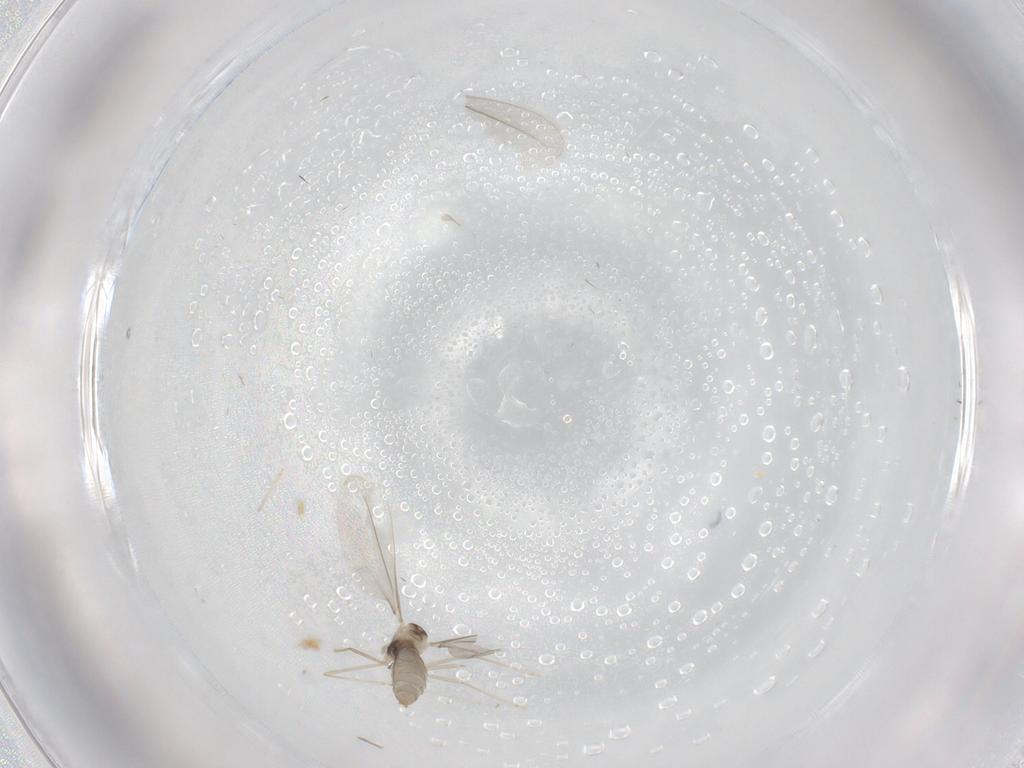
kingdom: Animalia
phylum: Arthropoda
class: Insecta
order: Diptera
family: Cecidomyiidae
